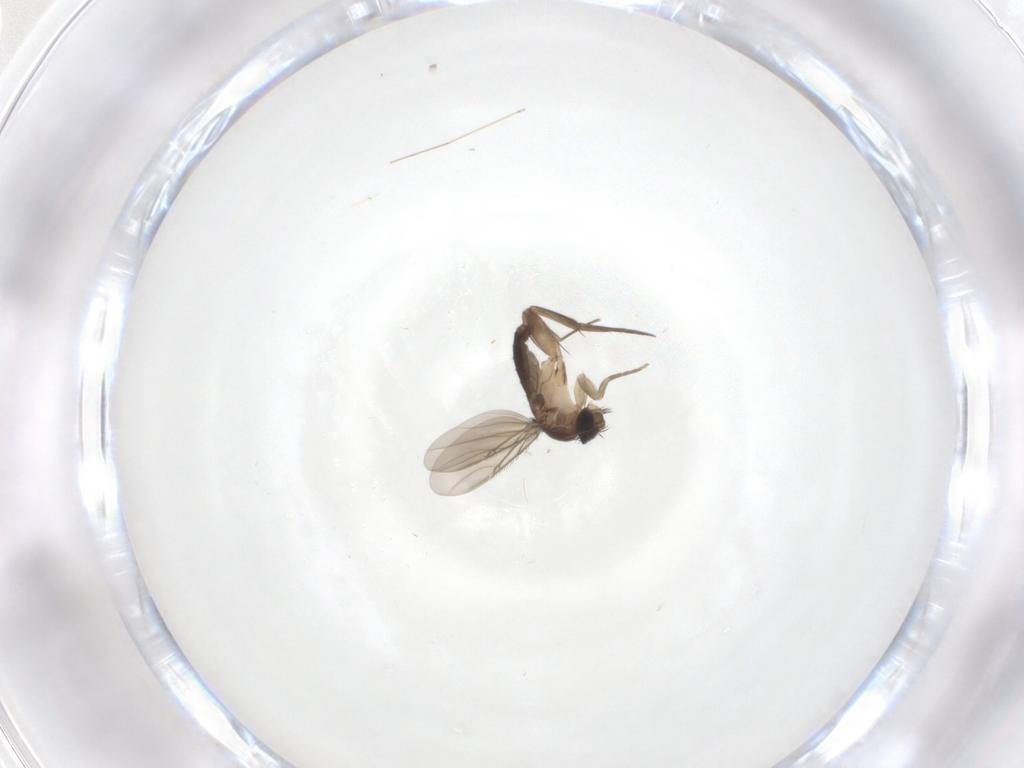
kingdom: Animalia
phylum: Arthropoda
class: Insecta
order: Diptera
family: Phoridae
